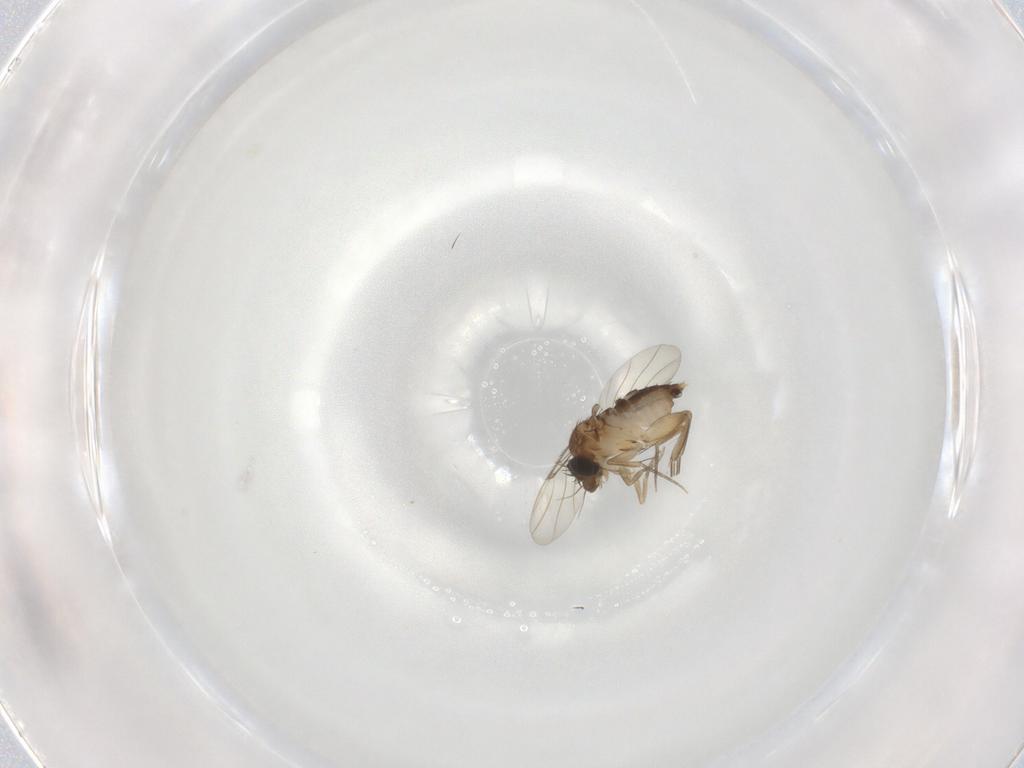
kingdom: Animalia
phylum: Arthropoda
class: Insecta
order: Diptera
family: Phoridae
